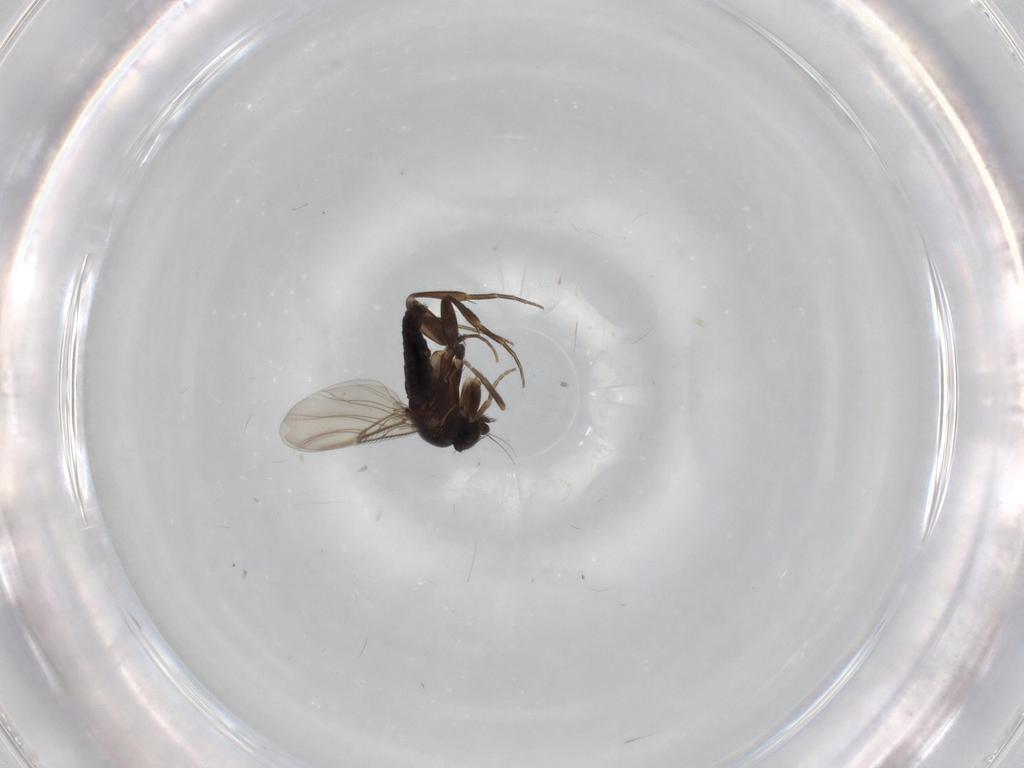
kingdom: Animalia
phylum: Arthropoda
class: Insecta
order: Diptera
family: Phoridae
